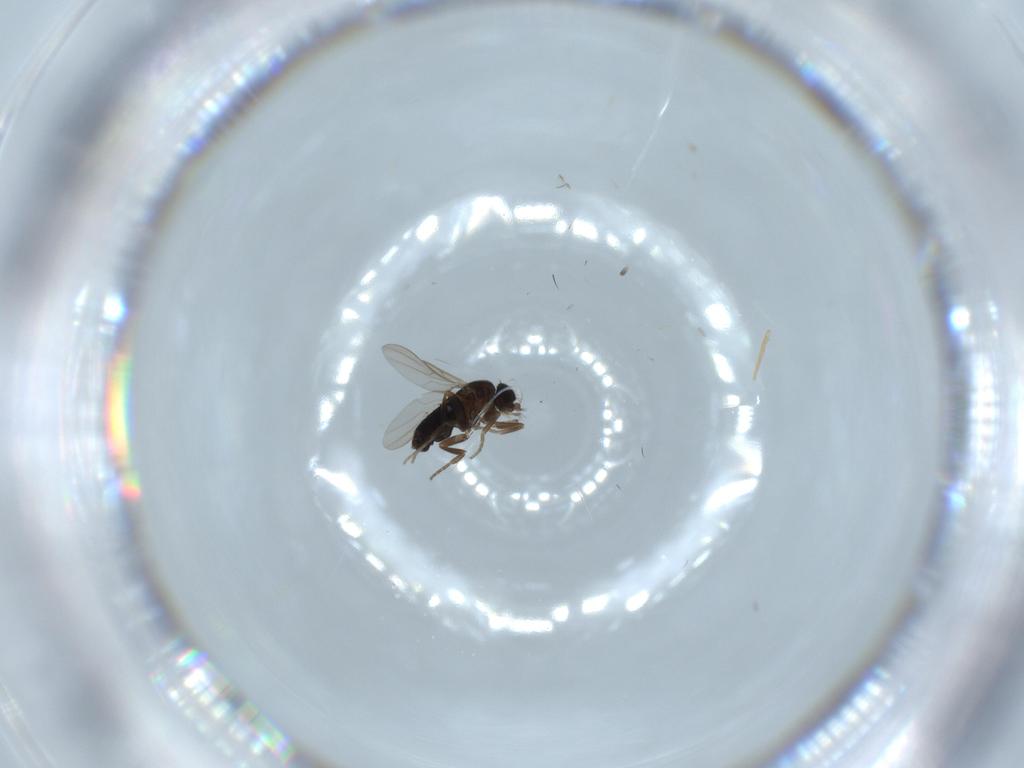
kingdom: Animalia
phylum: Arthropoda
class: Insecta
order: Diptera
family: Phoridae
